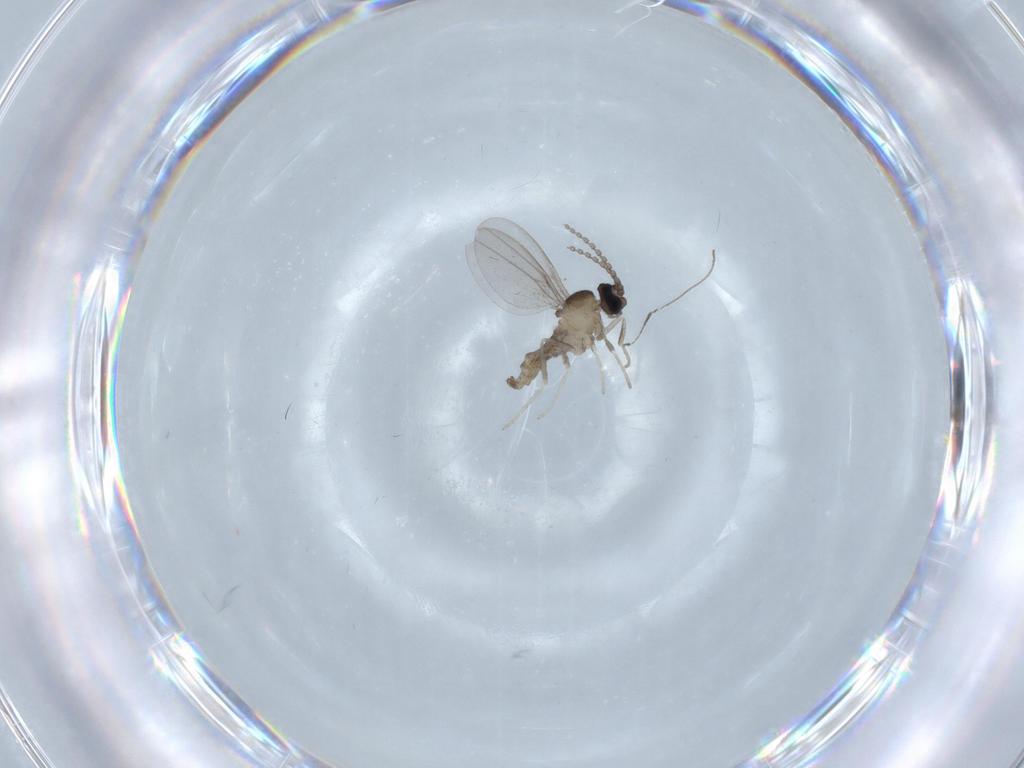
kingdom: Animalia
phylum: Arthropoda
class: Insecta
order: Diptera
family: Cecidomyiidae
